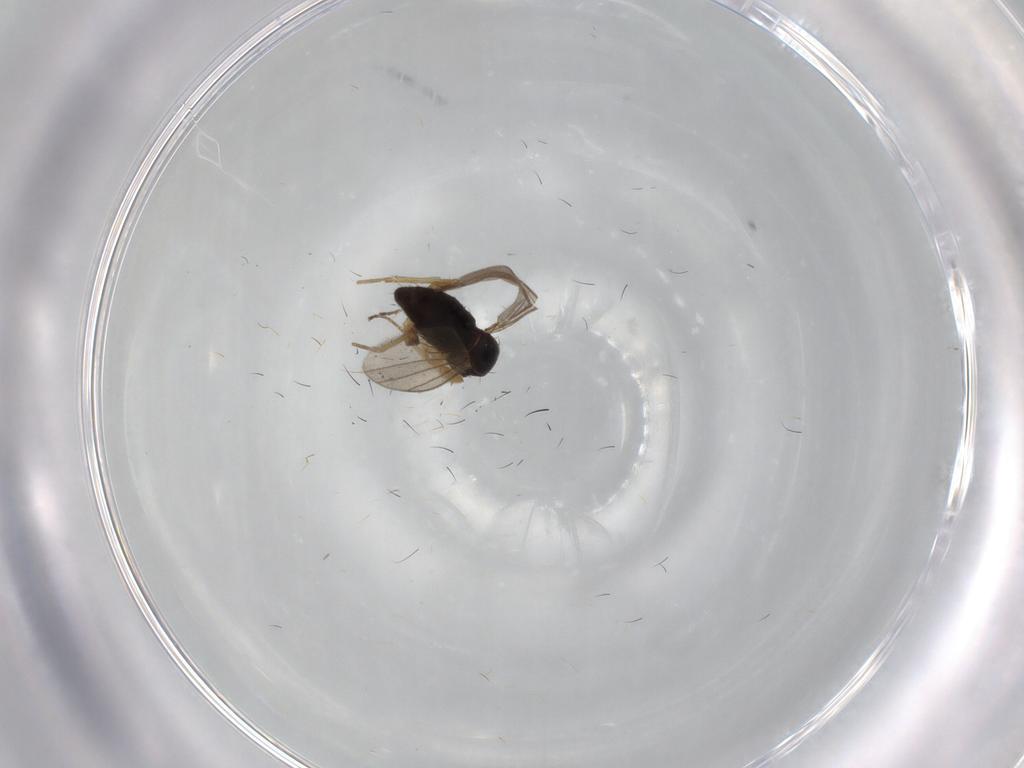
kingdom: Animalia
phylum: Arthropoda
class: Insecta
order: Diptera
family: Dolichopodidae
